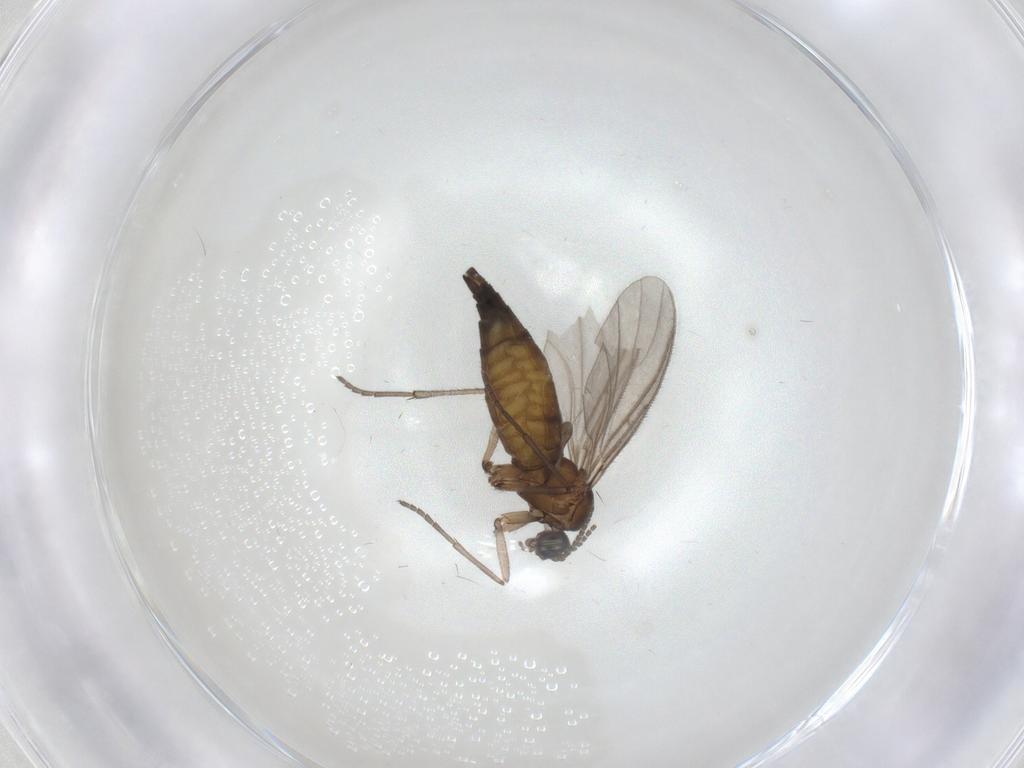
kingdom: Animalia
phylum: Arthropoda
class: Insecta
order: Diptera
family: Sciaridae
